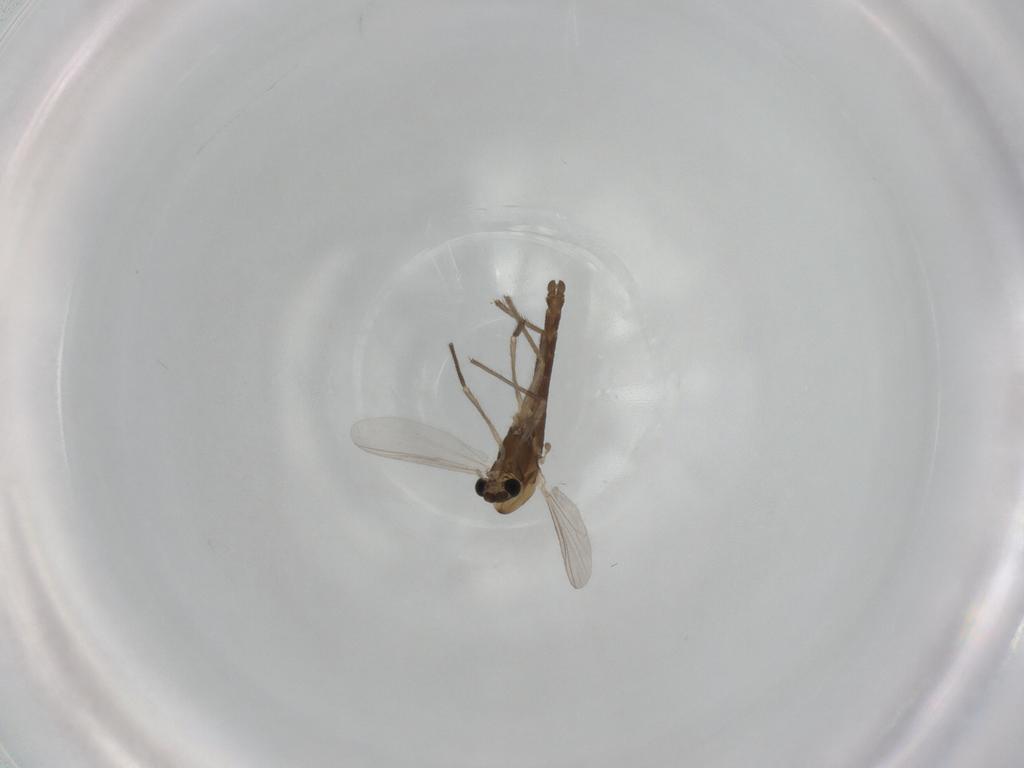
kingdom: Animalia
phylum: Arthropoda
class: Insecta
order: Diptera
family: Chironomidae
